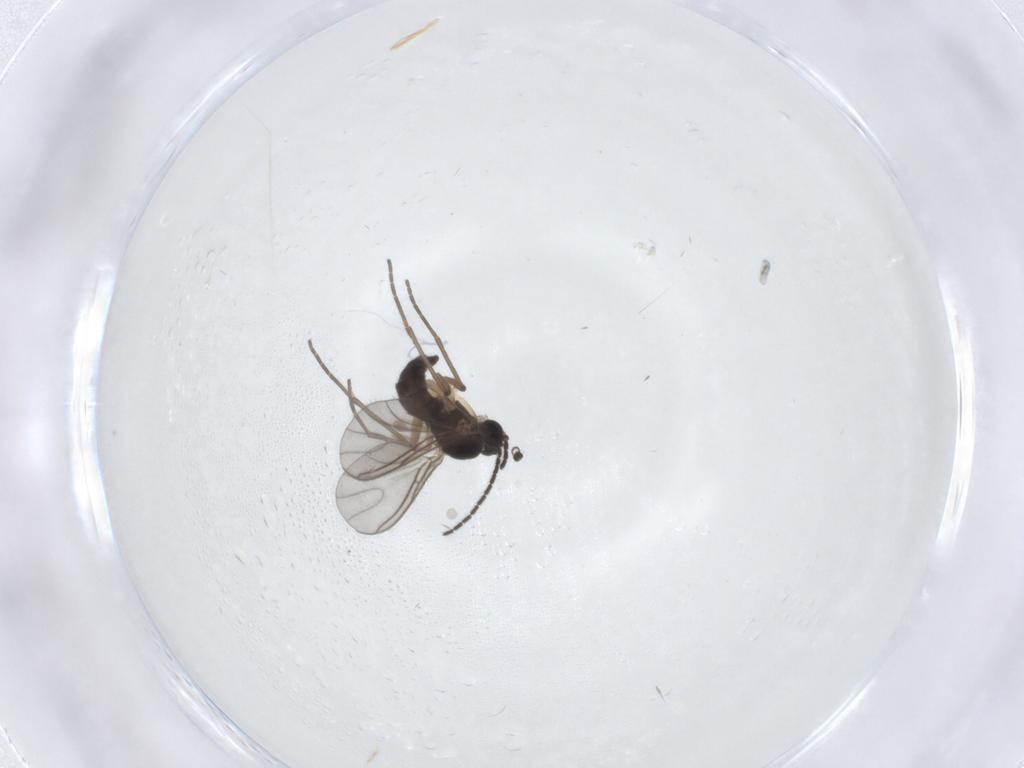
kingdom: Animalia
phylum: Arthropoda
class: Insecta
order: Diptera
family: Sciaridae
